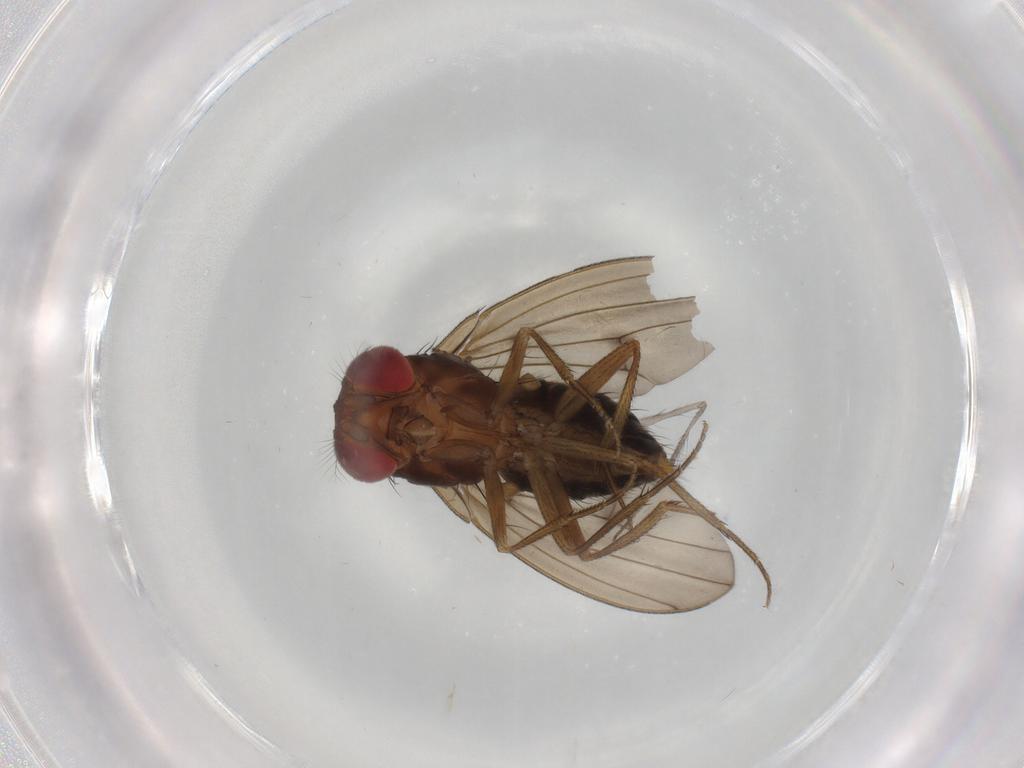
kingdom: Animalia
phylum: Arthropoda
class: Insecta
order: Diptera
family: Drosophilidae
